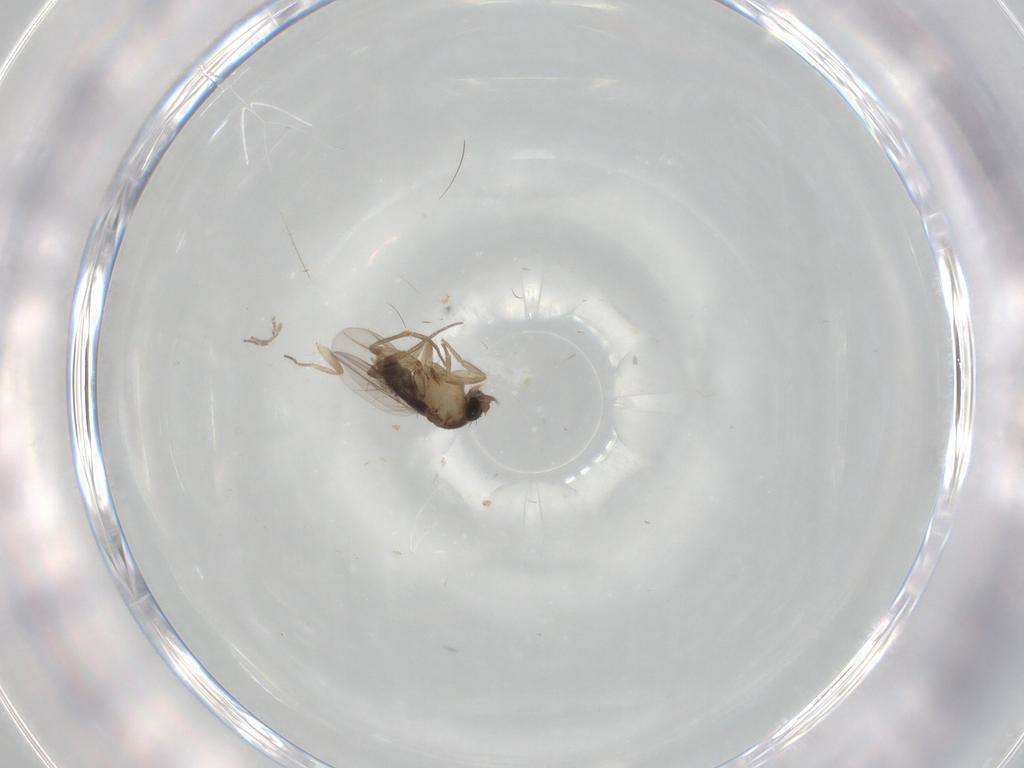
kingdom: Animalia
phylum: Arthropoda
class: Insecta
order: Diptera
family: Phoridae
